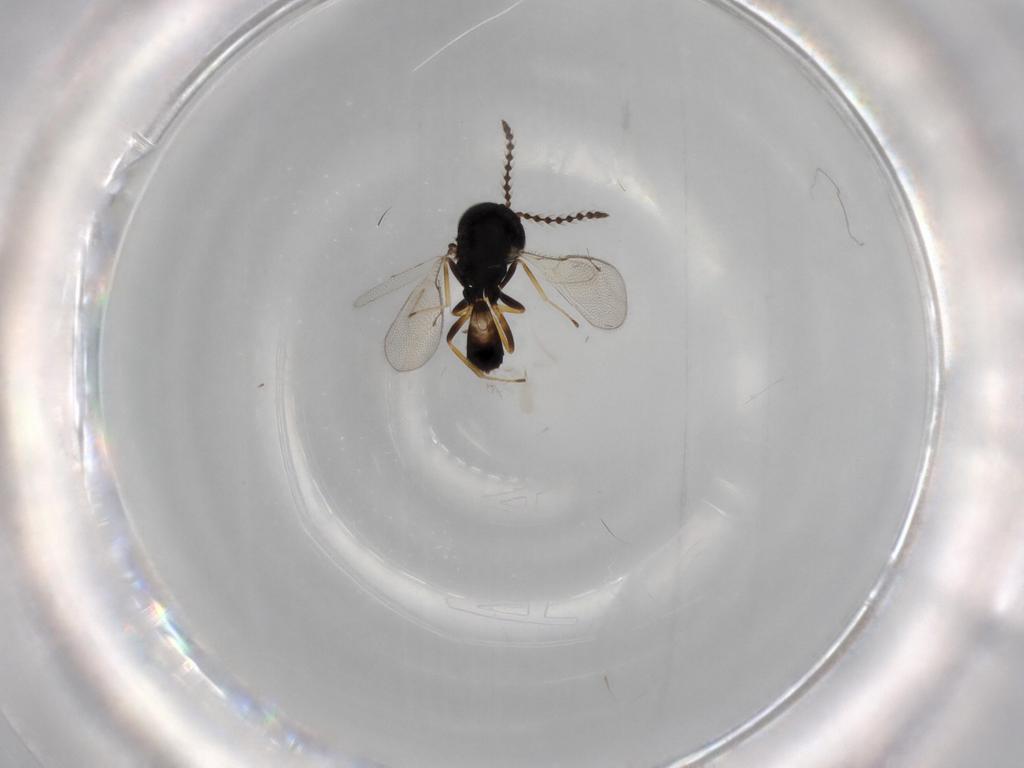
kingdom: Animalia
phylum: Arthropoda
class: Insecta
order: Hymenoptera
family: Pteromalidae
